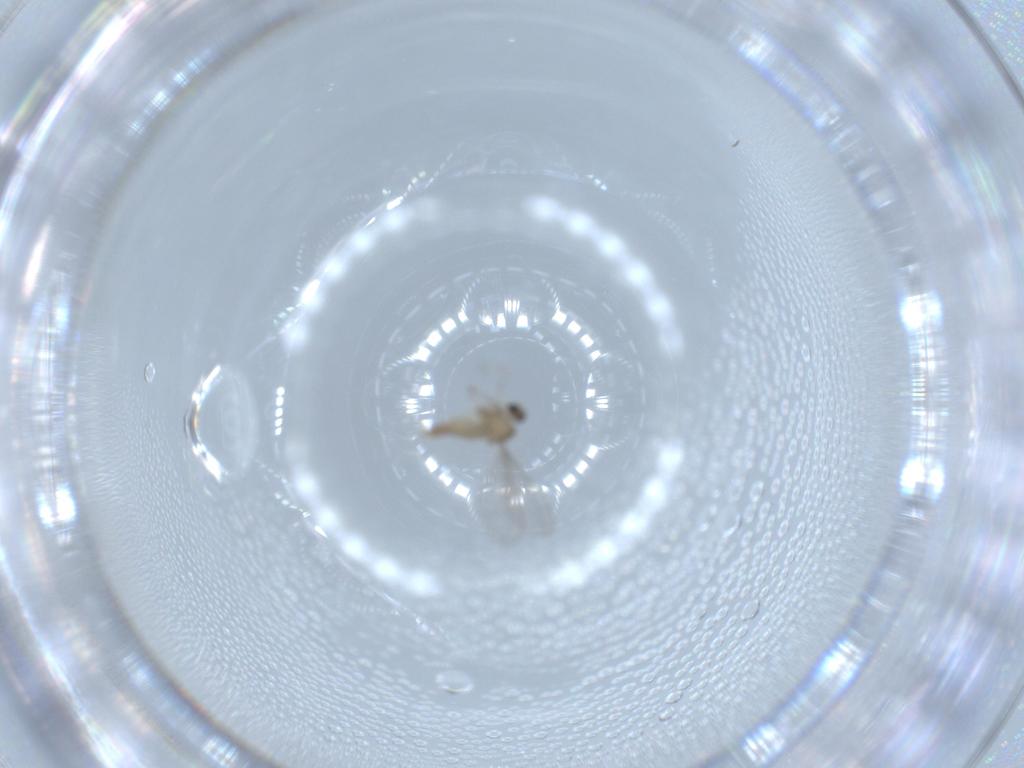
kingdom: Animalia
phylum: Arthropoda
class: Insecta
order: Diptera
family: Cecidomyiidae
